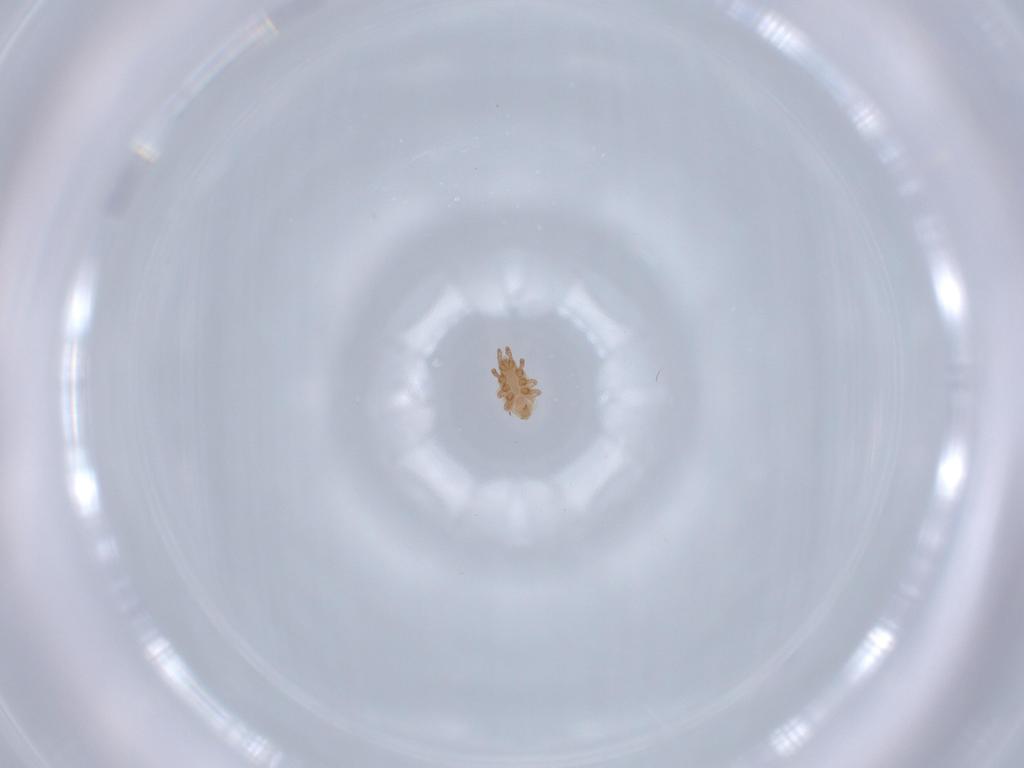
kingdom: Animalia
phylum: Arthropoda
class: Arachnida
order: Mesostigmata
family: Dinychidae
